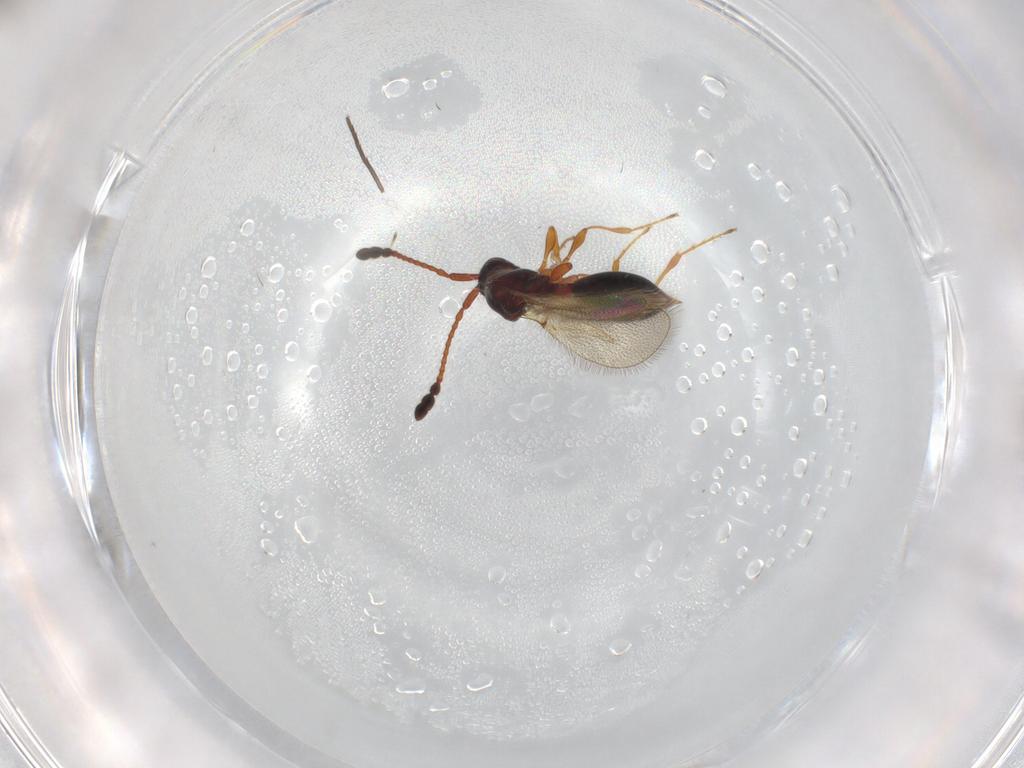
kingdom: Animalia
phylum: Arthropoda
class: Insecta
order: Hymenoptera
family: Diapriidae
